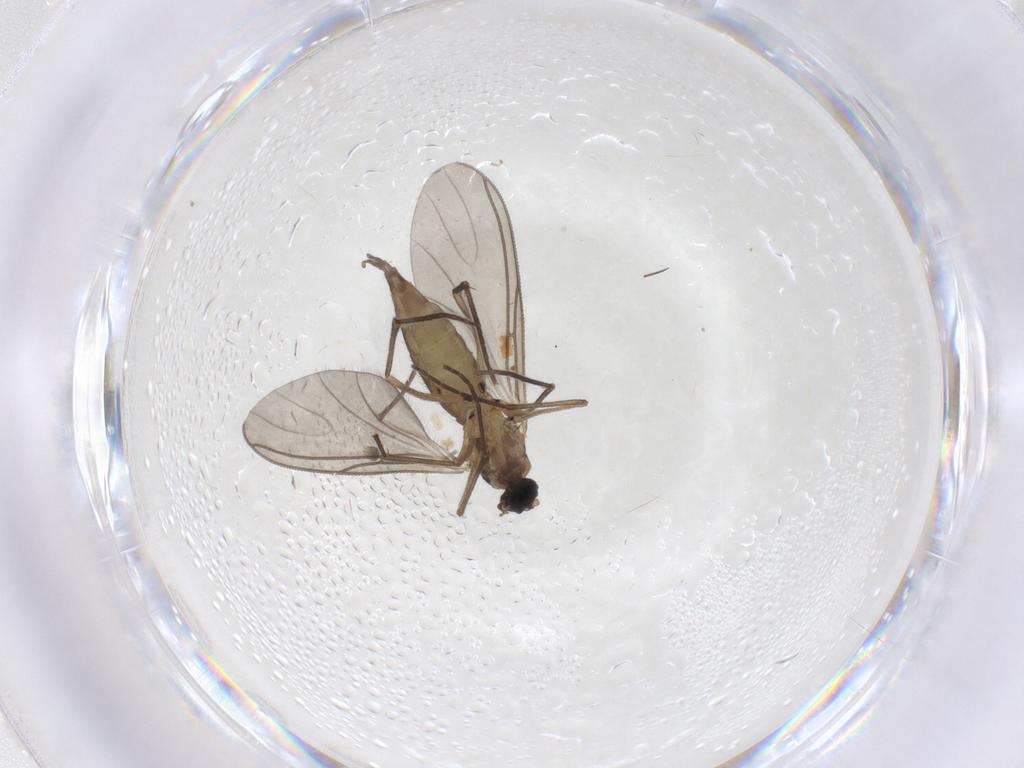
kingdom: Animalia
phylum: Arthropoda
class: Insecta
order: Diptera
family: Sciaridae
